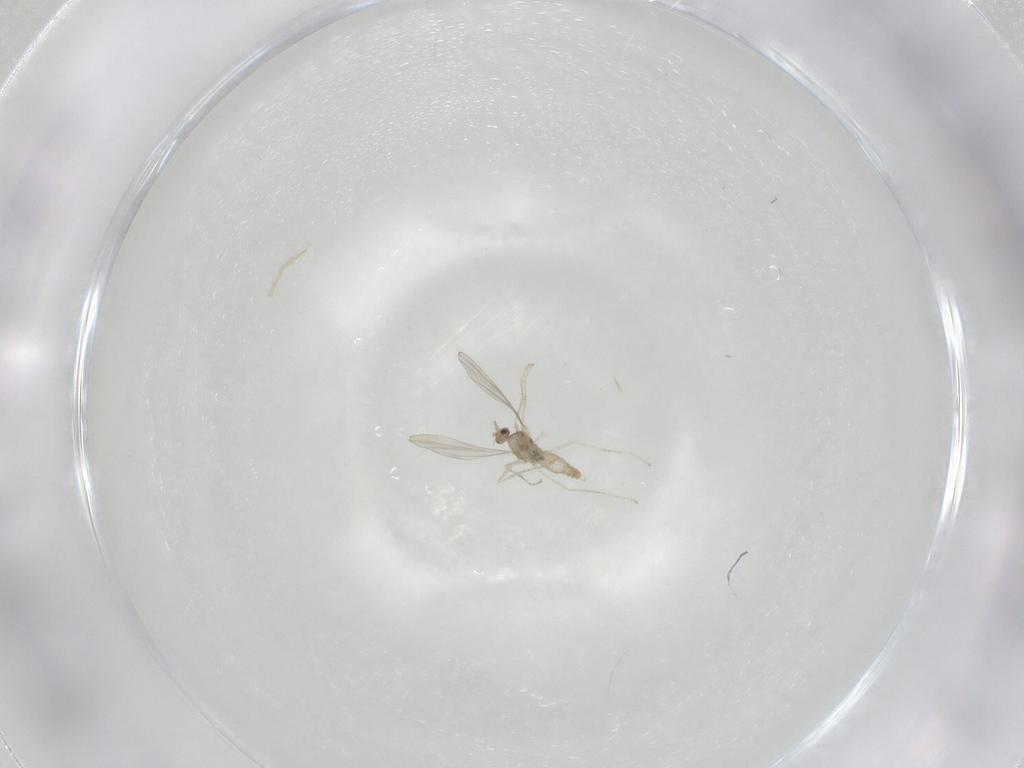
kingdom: Animalia
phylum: Arthropoda
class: Insecta
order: Diptera
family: Cecidomyiidae
